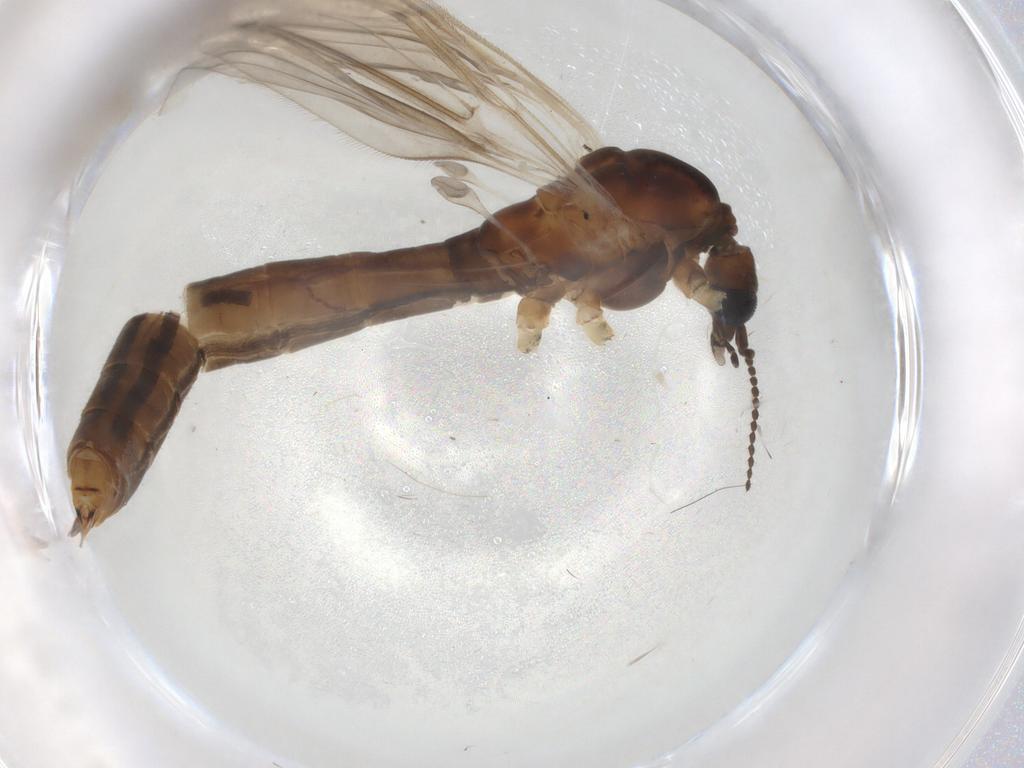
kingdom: Animalia
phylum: Arthropoda
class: Insecta
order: Diptera
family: Limoniidae
